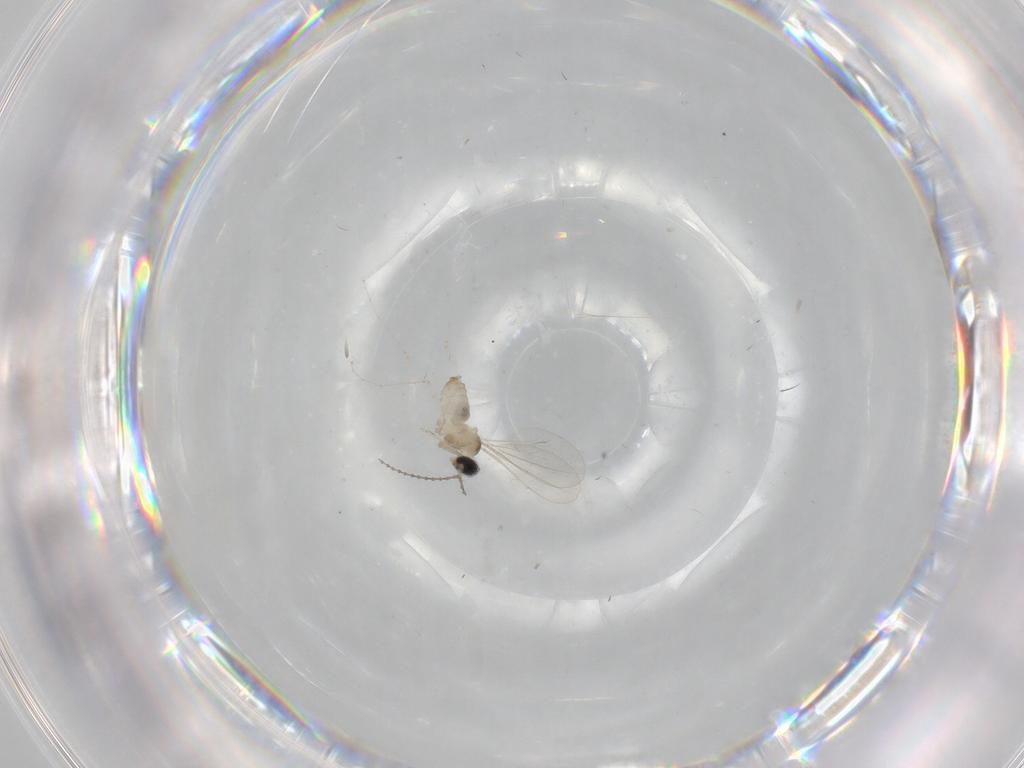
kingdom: Animalia
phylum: Arthropoda
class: Insecta
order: Diptera
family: Cecidomyiidae
